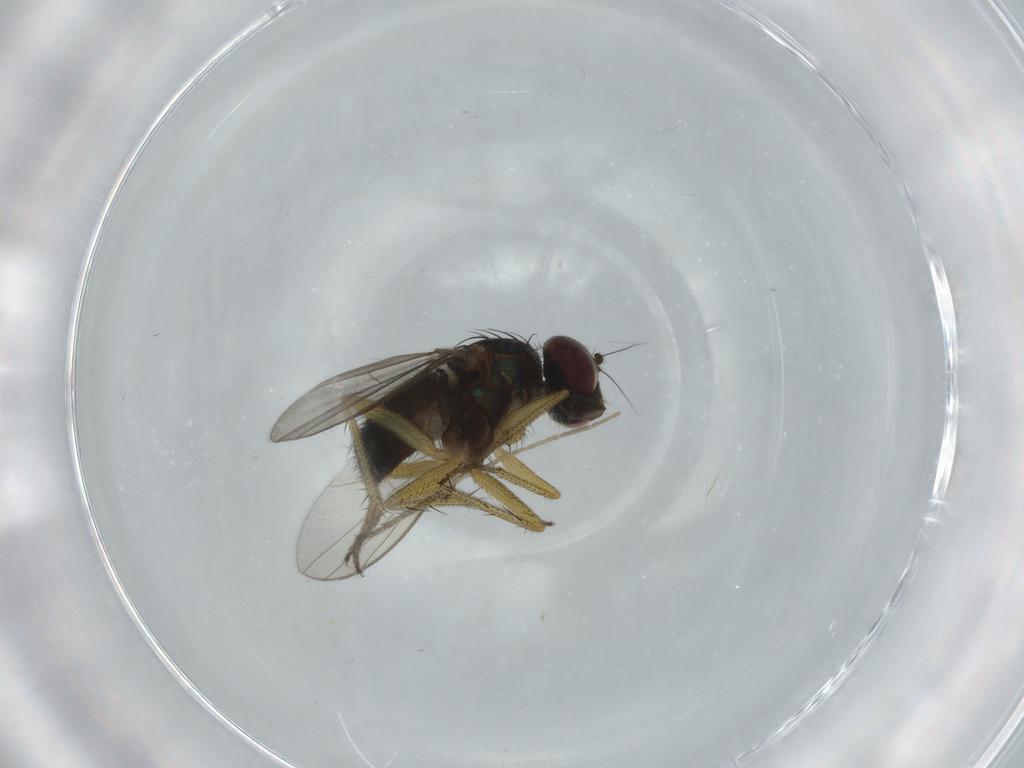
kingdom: Animalia
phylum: Arthropoda
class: Insecta
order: Diptera
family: Dolichopodidae
